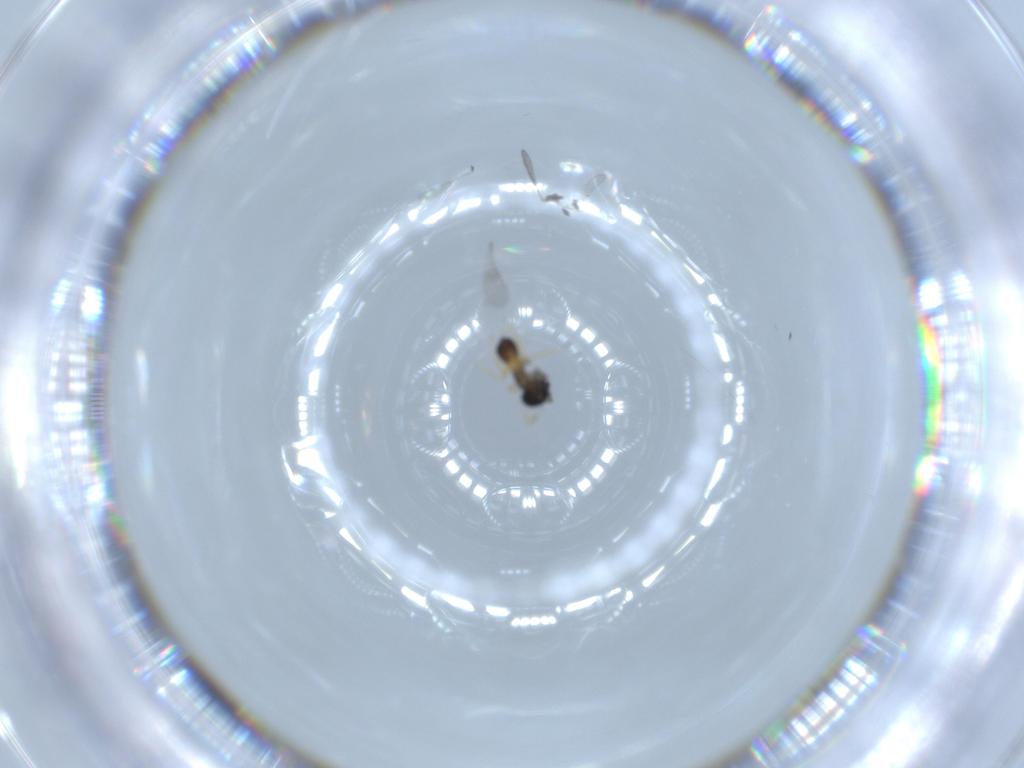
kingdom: Animalia
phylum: Arthropoda
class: Insecta
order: Hymenoptera
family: Scelionidae
